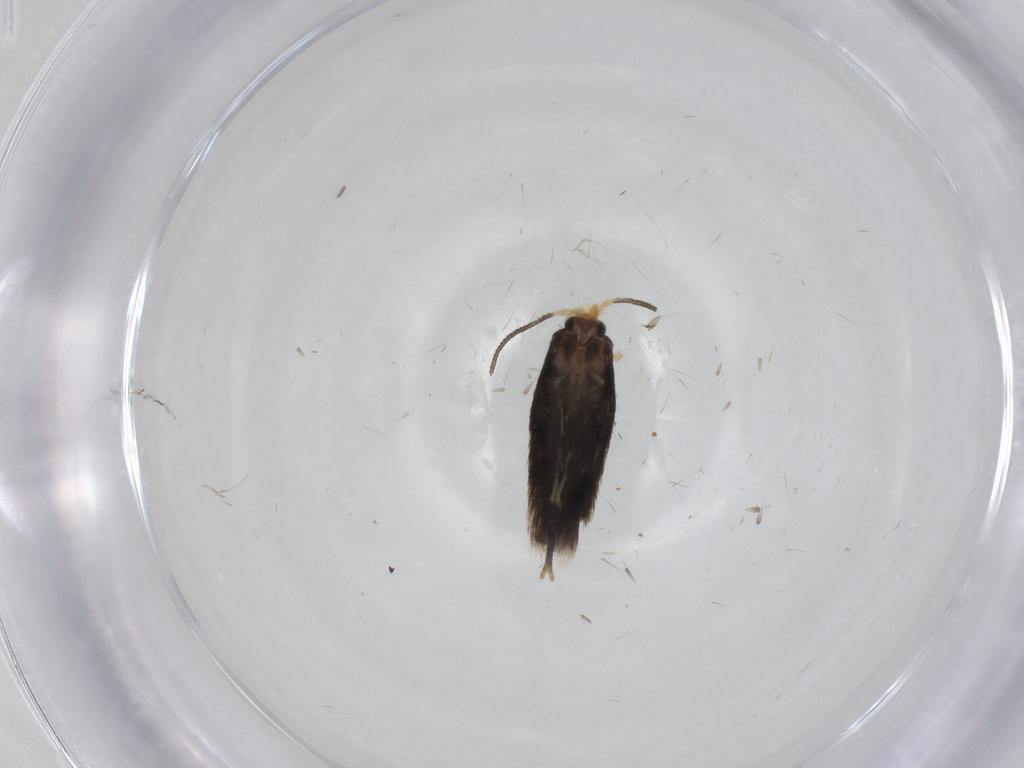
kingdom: Animalia
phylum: Arthropoda
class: Insecta
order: Lepidoptera
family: Nepticulidae
